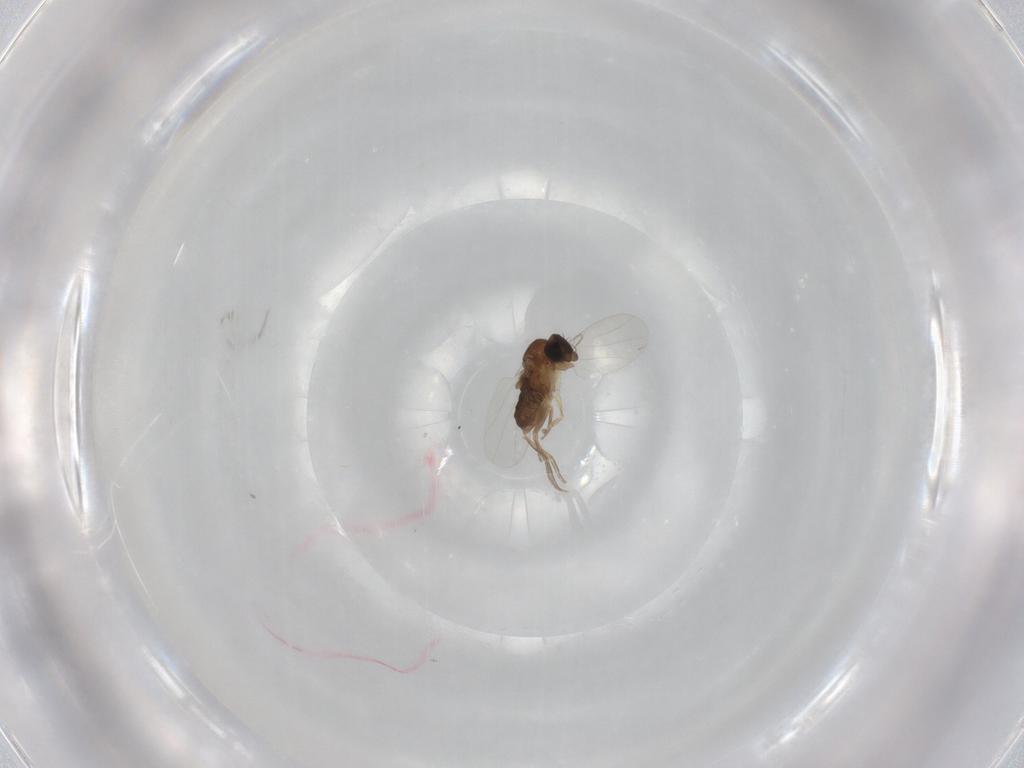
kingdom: Animalia
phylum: Arthropoda
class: Insecta
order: Diptera
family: Phoridae
